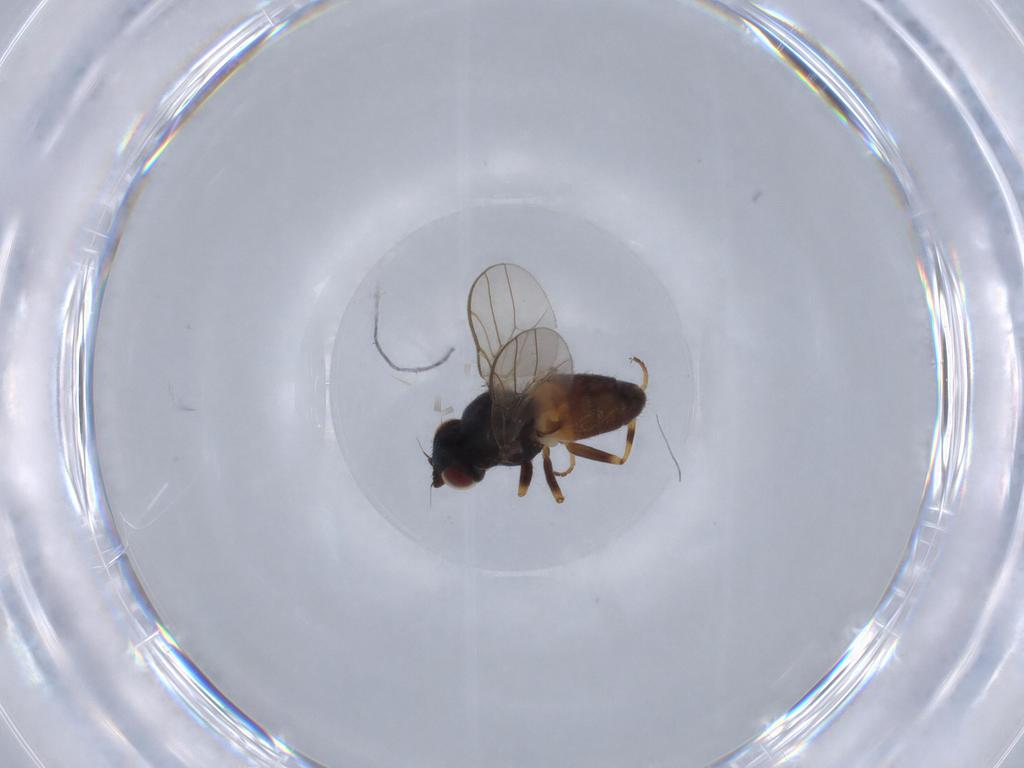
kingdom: Animalia
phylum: Arthropoda
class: Insecta
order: Diptera
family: Chloropidae
